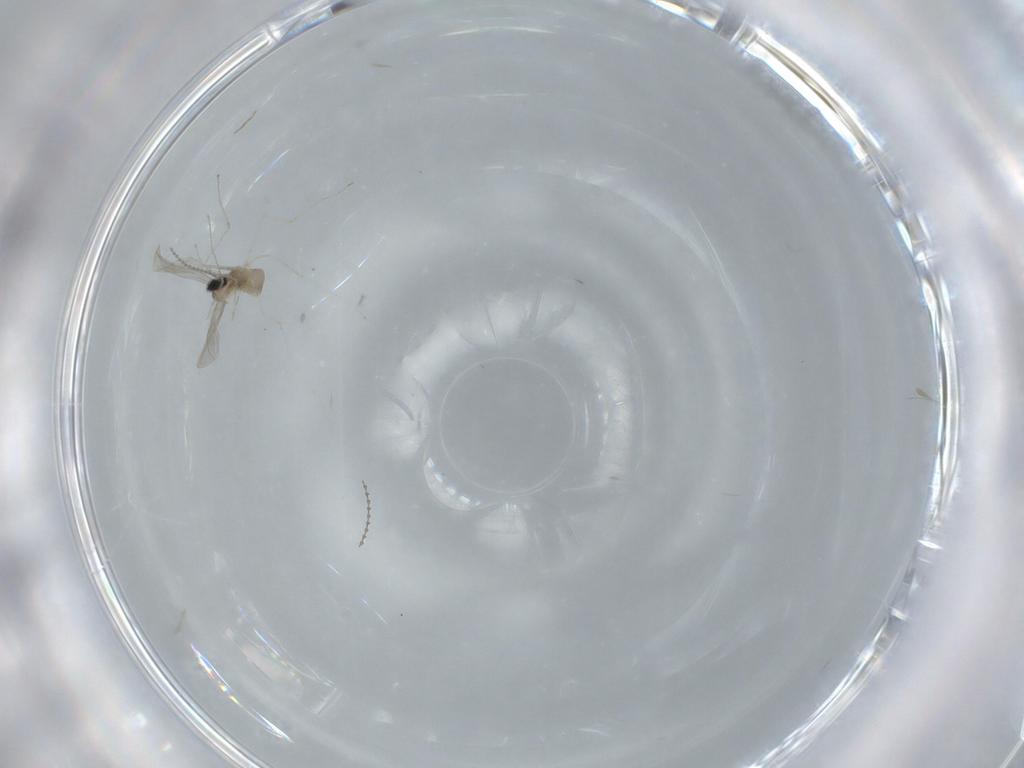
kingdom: Animalia
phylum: Arthropoda
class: Insecta
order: Diptera
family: Cecidomyiidae
